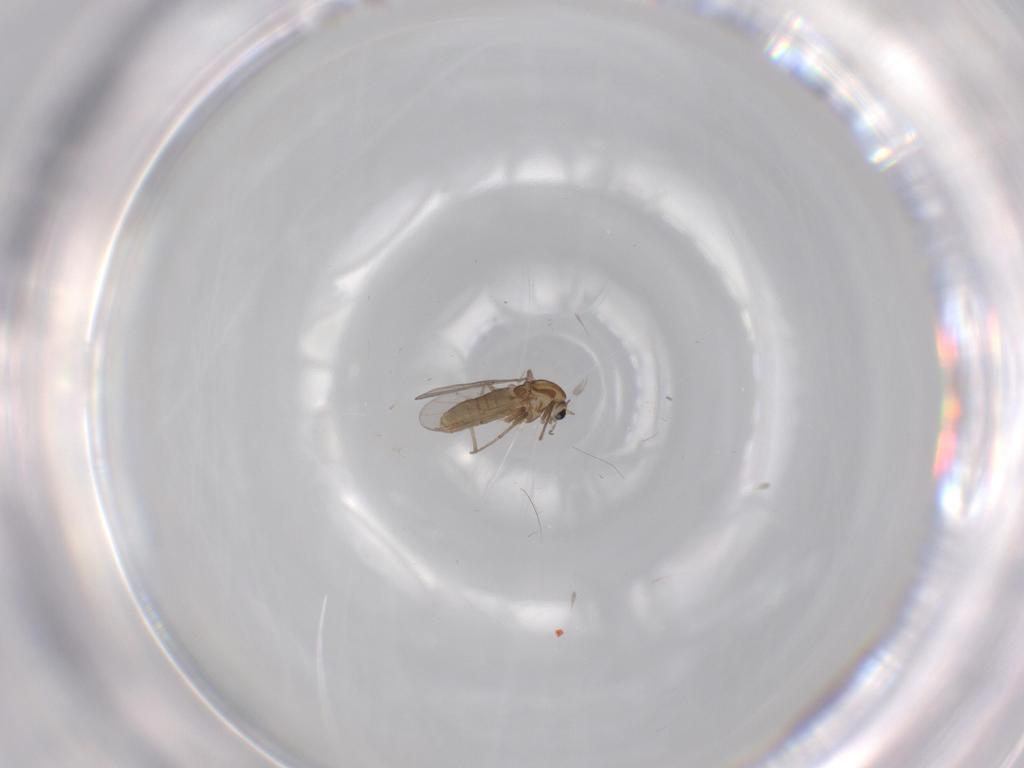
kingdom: Animalia
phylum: Arthropoda
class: Insecta
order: Diptera
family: Chironomidae
